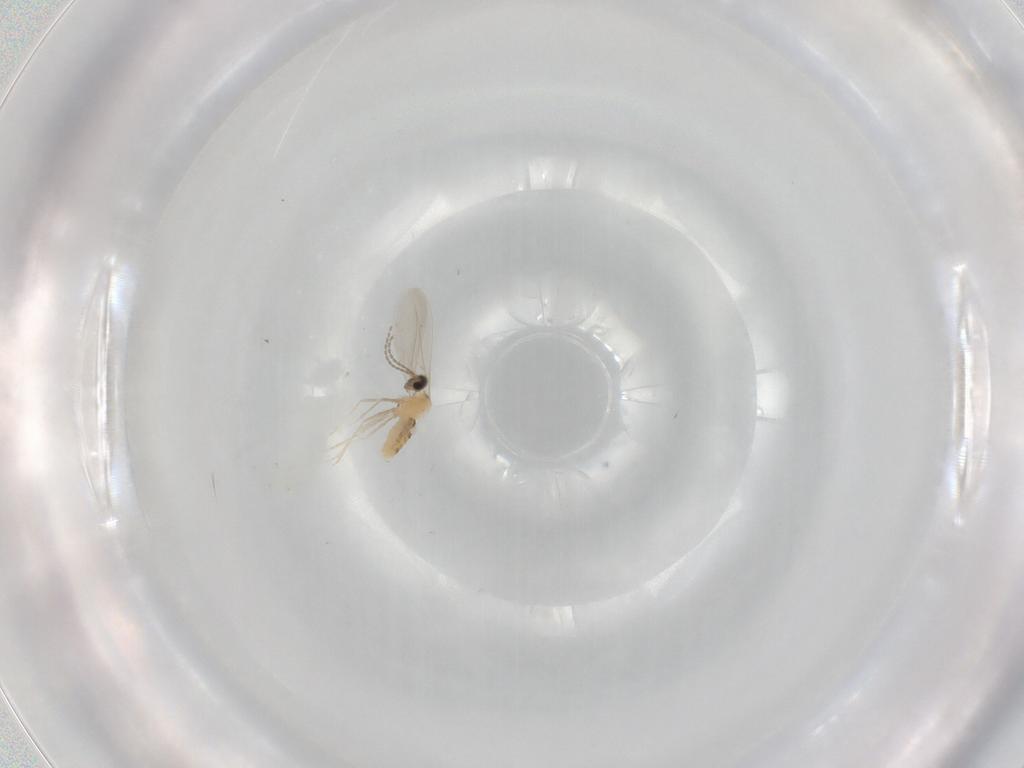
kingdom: Animalia
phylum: Arthropoda
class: Insecta
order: Diptera
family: Cecidomyiidae
